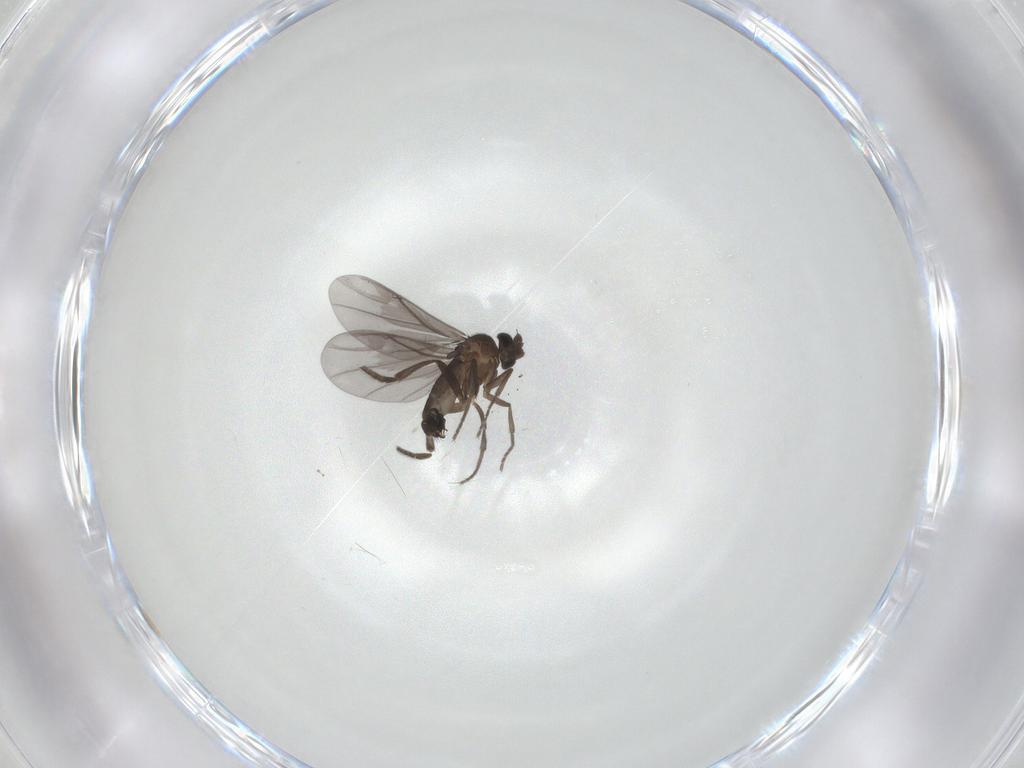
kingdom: Animalia
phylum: Arthropoda
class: Insecta
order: Diptera
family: Phoridae
